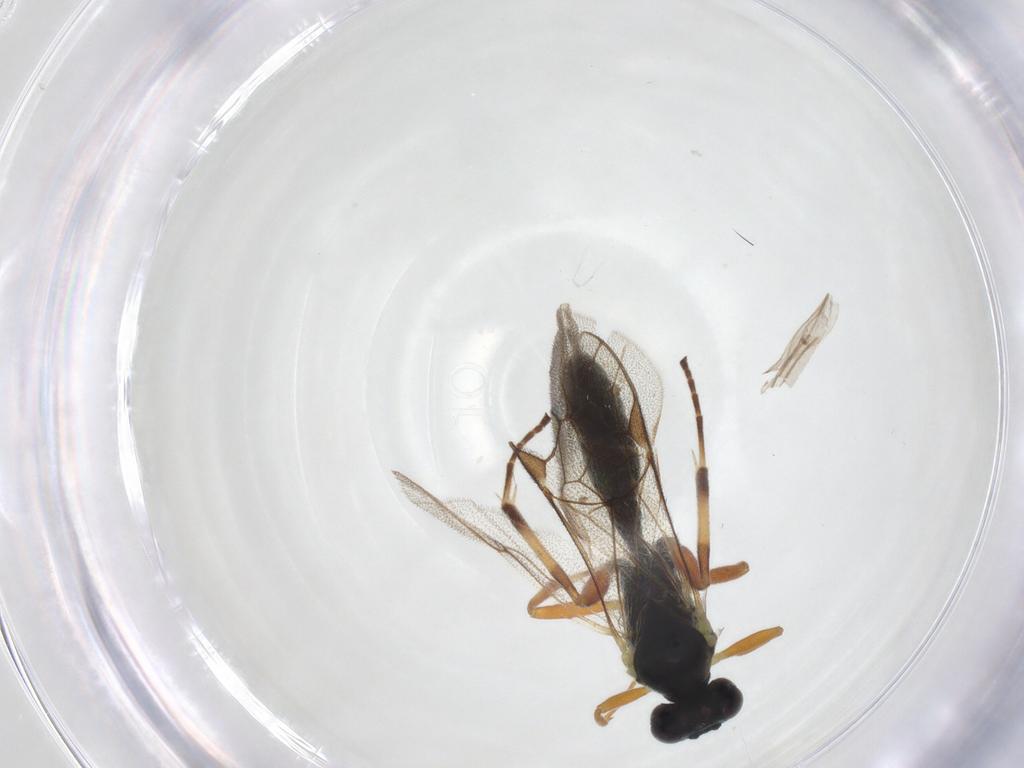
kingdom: Animalia
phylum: Arthropoda
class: Insecta
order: Hymenoptera
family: Ichneumonidae
